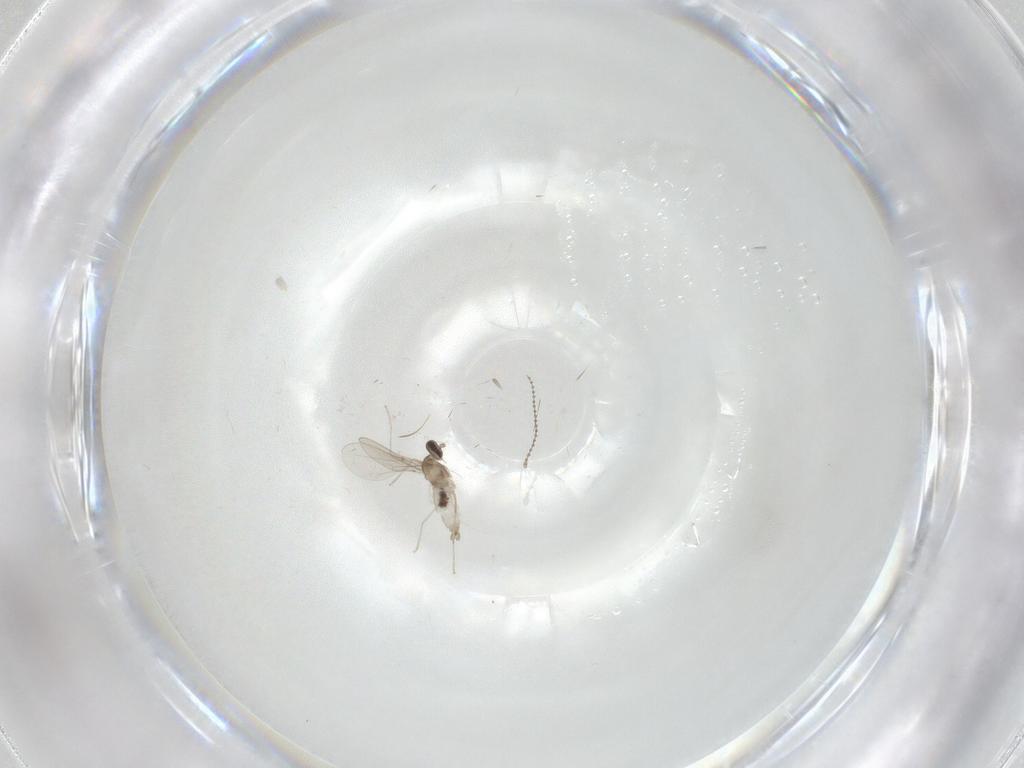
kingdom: Animalia
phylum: Arthropoda
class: Insecta
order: Diptera
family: Cecidomyiidae
